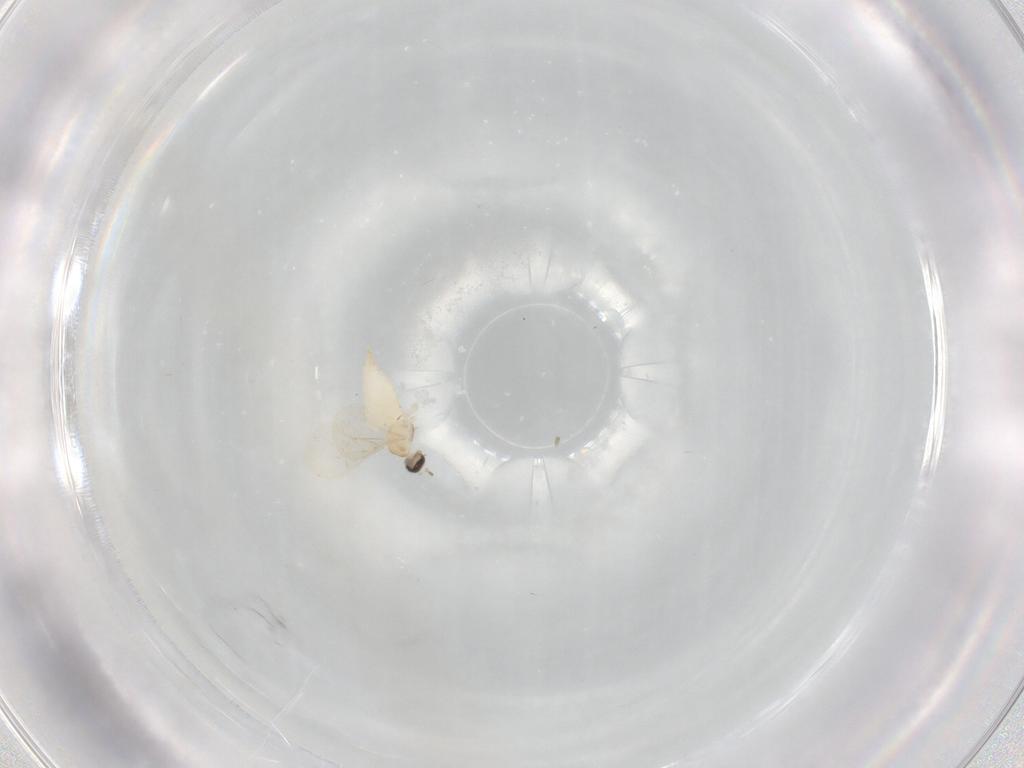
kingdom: Animalia
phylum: Arthropoda
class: Insecta
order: Diptera
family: Cecidomyiidae
